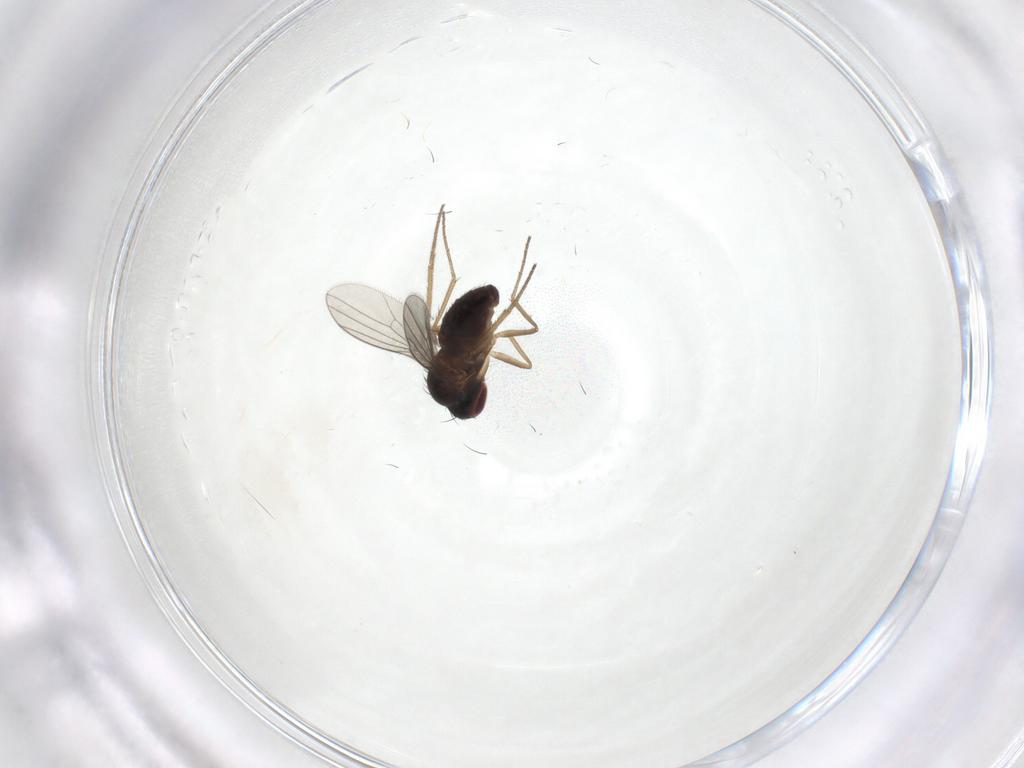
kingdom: Animalia
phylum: Arthropoda
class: Insecta
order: Diptera
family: Dolichopodidae
